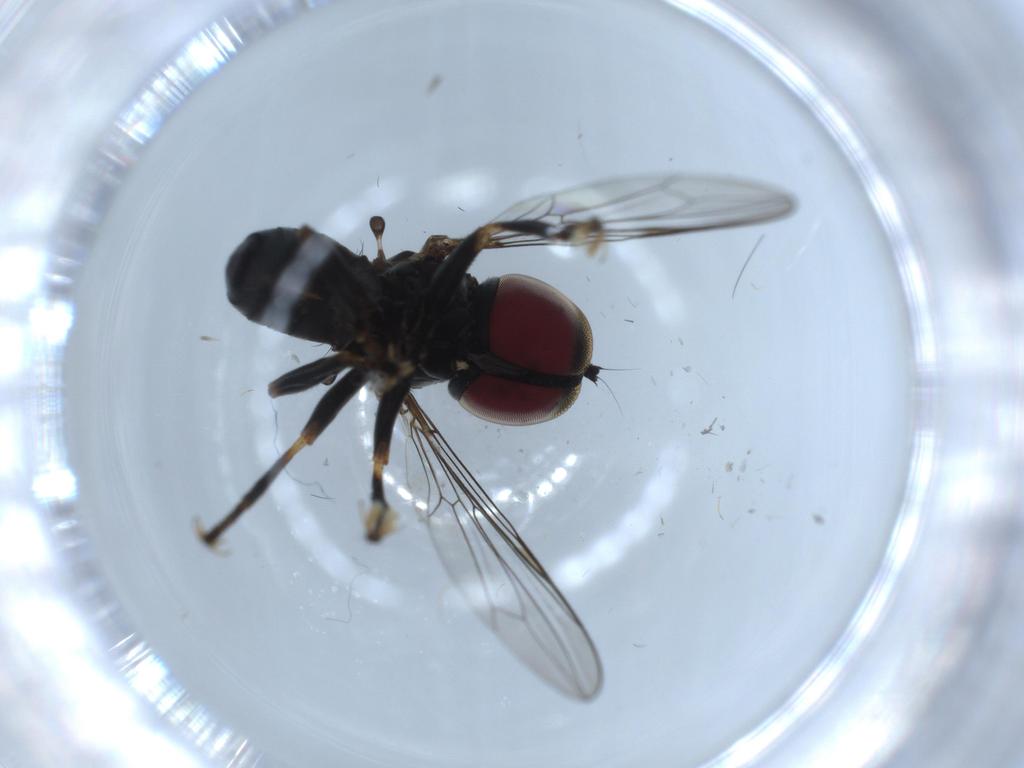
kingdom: Animalia
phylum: Arthropoda
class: Insecta
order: Diptera
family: Pipunculidae
